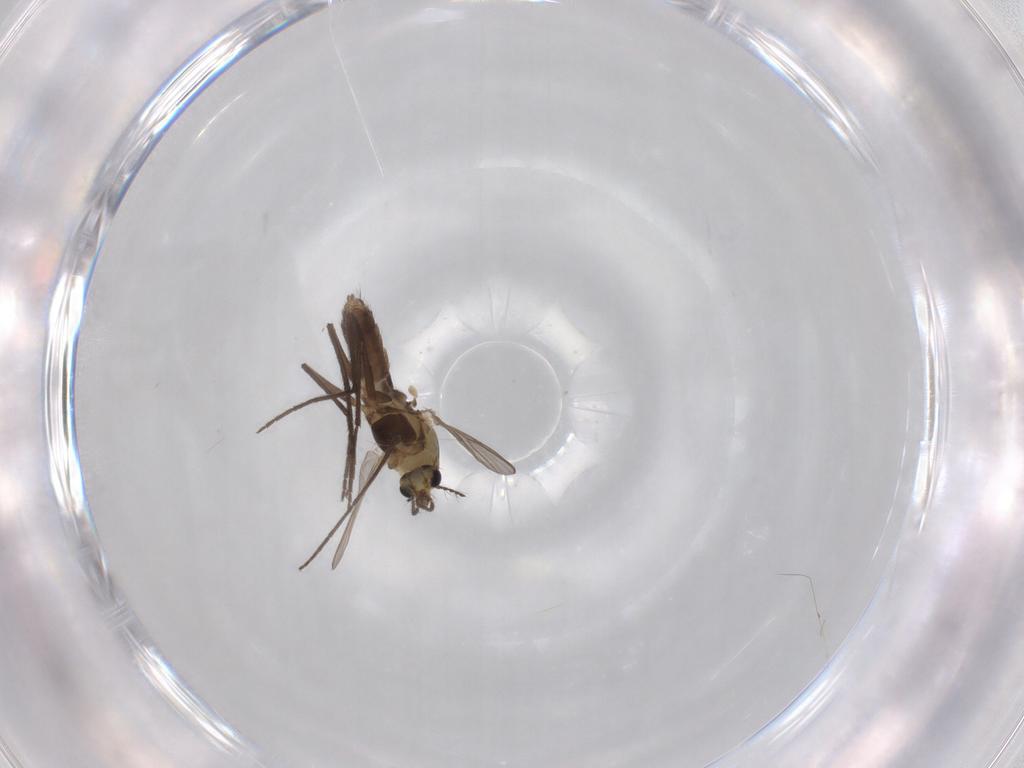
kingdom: Animalia
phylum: Arthropoda
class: Insecta
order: Diptera
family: Chironomidae
